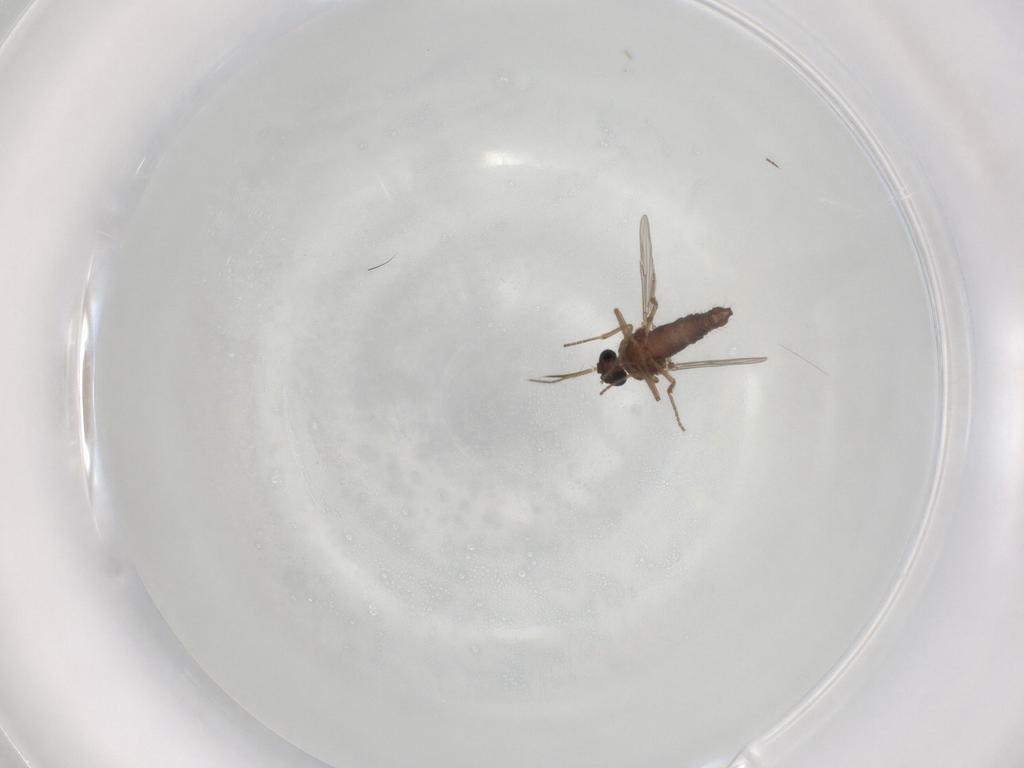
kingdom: Animalia
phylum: Arthropoda
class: Insecta
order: Diptera
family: Ceratopogonidae
